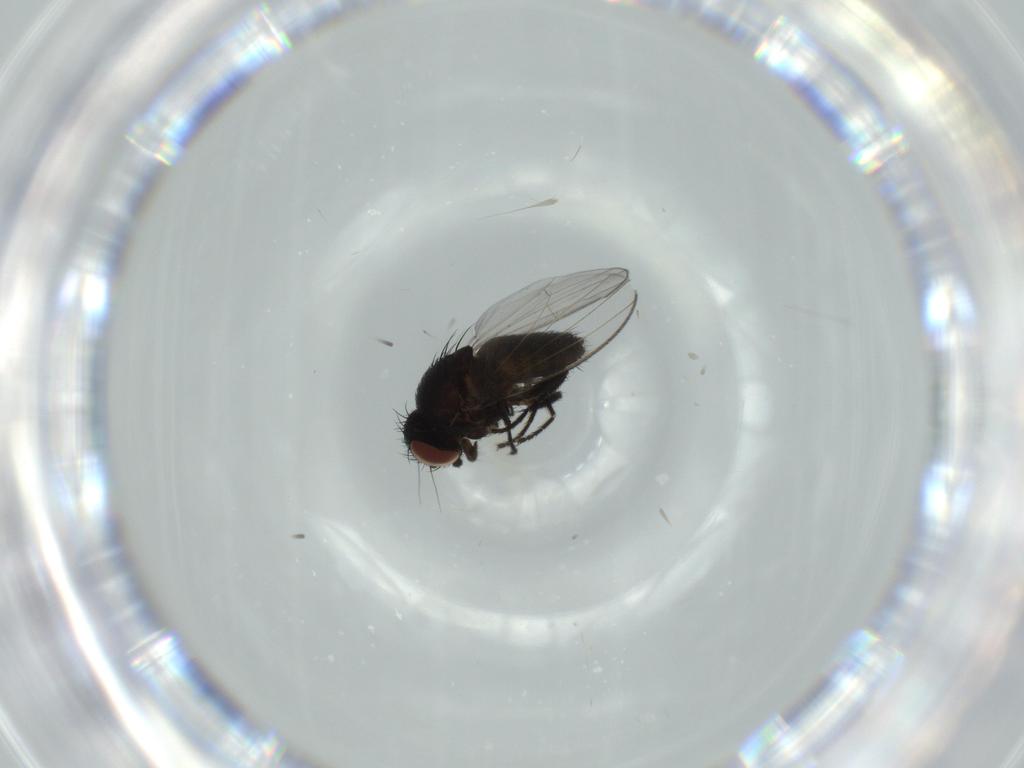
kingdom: Animalia
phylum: Arthropoda
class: Insecta
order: Diptera
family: Milichiidae
